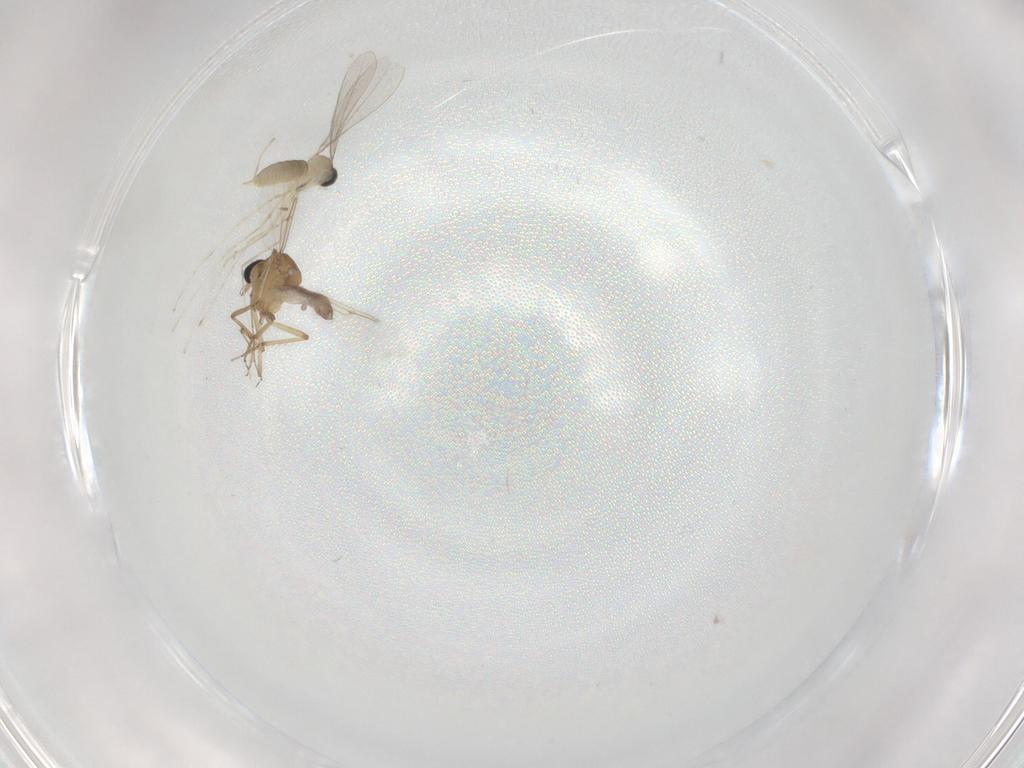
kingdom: Animalia
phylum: Arthropoda
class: Insecta
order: Diptera
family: Cecidomyiidae
